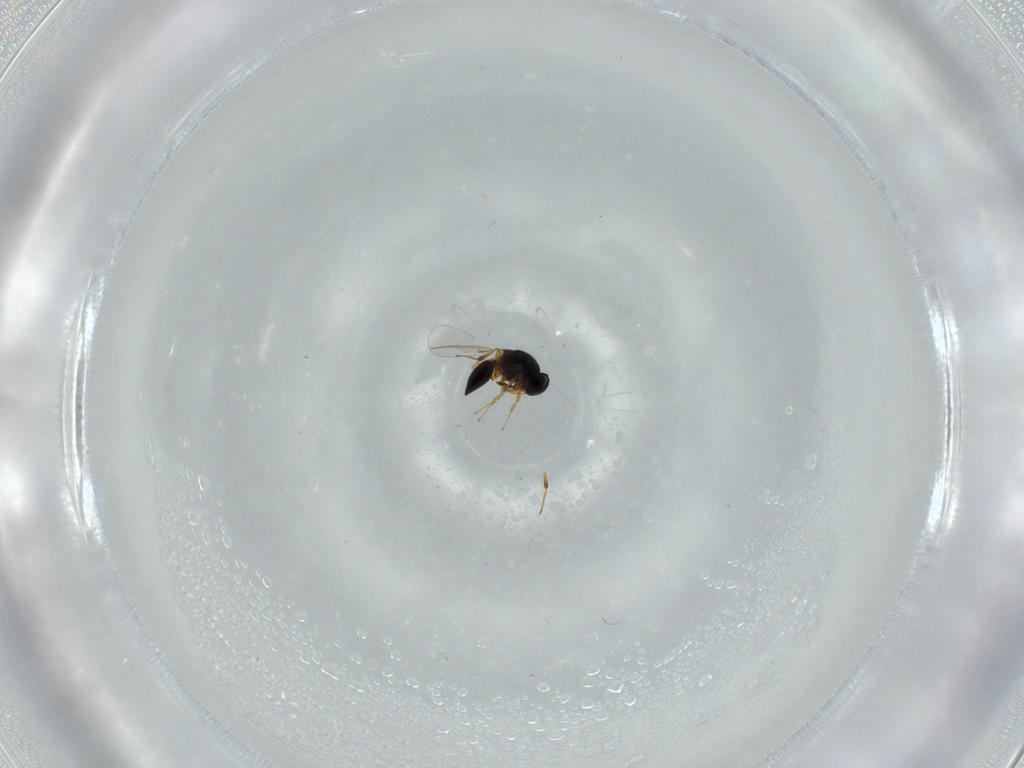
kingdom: Animalia
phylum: Arthropoda
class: Insecta
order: Hymenoptera
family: Platygastridae
